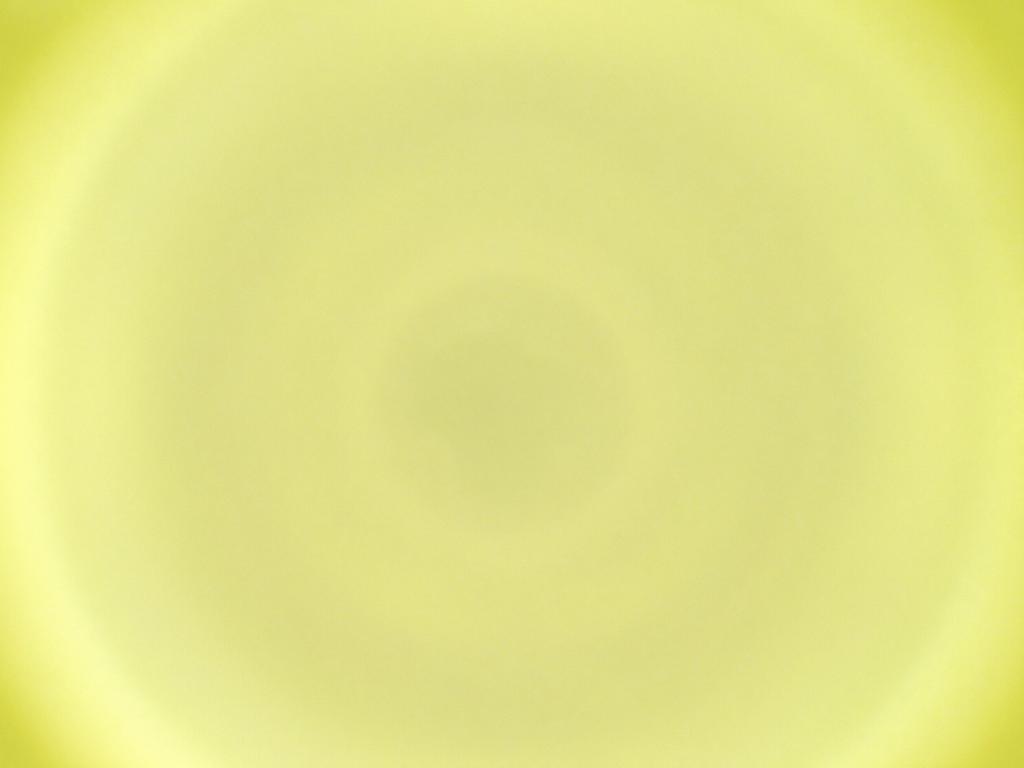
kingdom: Animalia
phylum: Arthropoda
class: Insecta
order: Diptera
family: Cecidomyiidae
